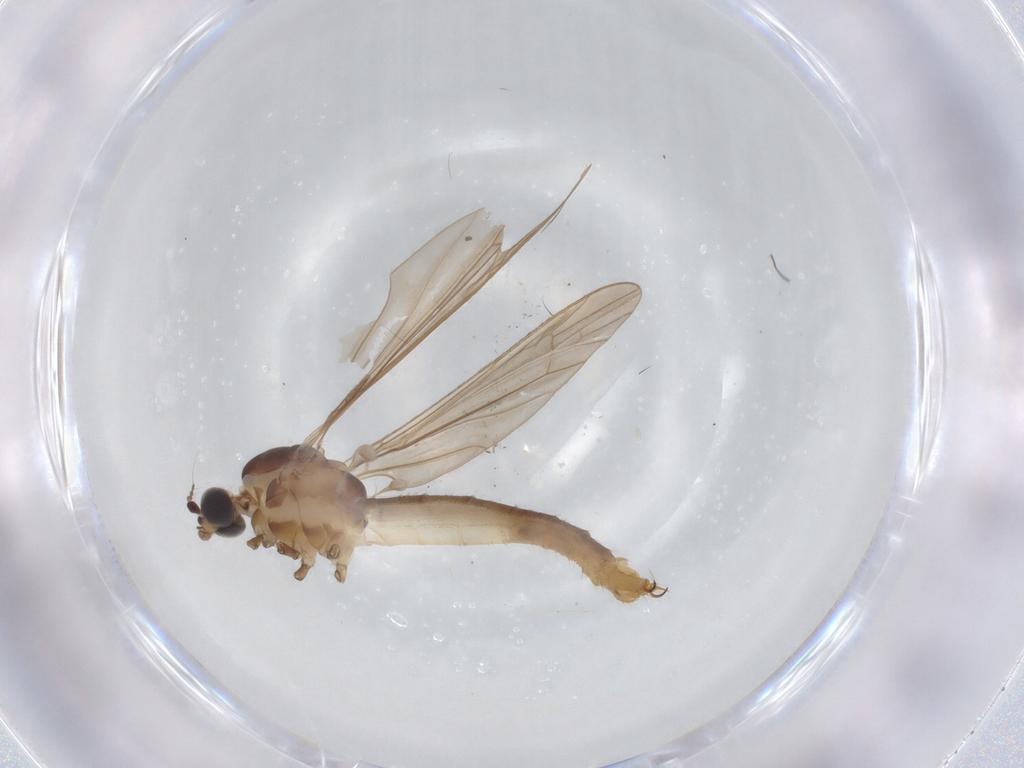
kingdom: Animalia
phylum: Arthropoda
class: Insecta
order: Diptera
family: Limoniidae
